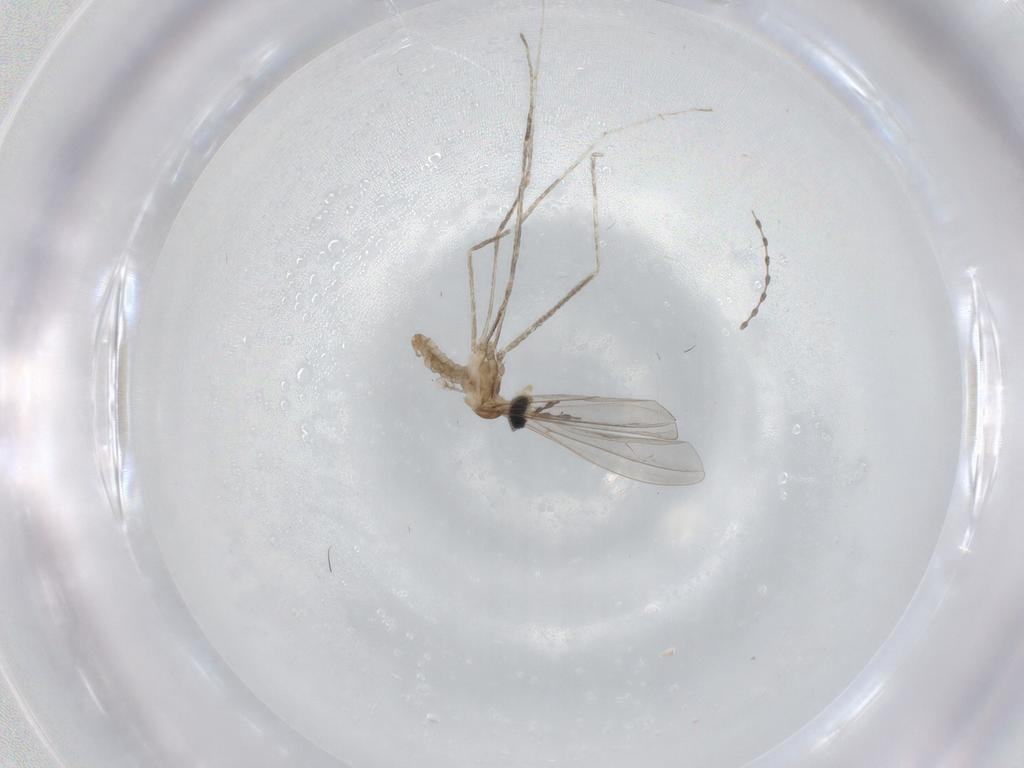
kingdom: Animalia
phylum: Arthropoda
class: Insecta
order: Diptera
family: Cecidomyiidae
